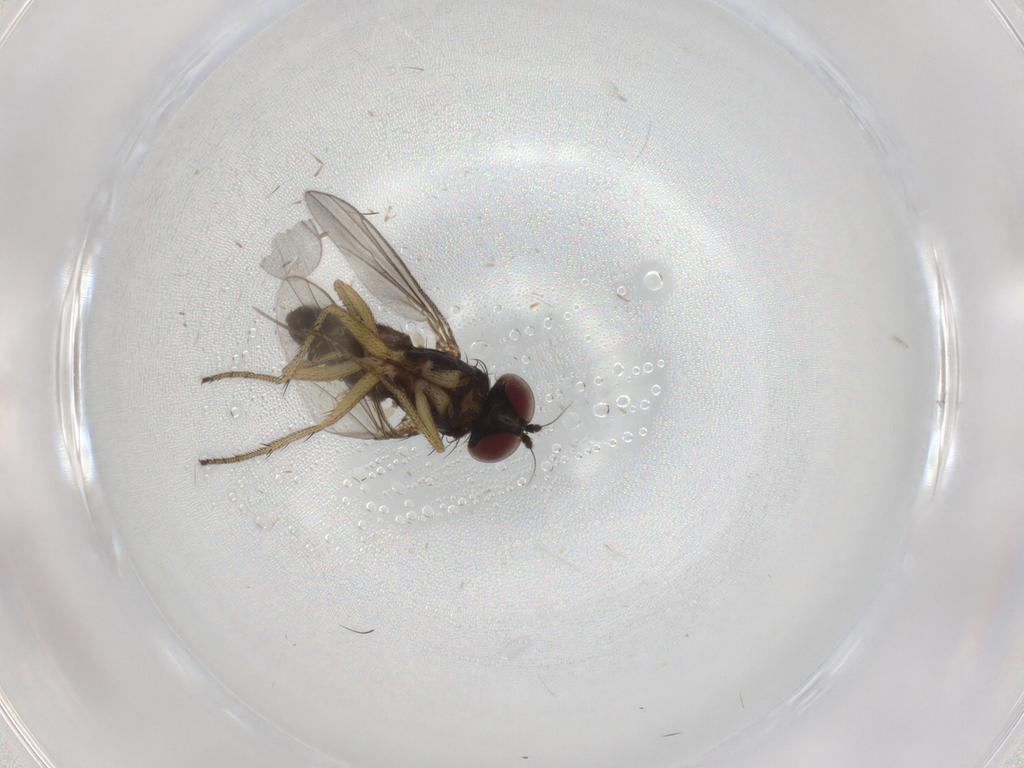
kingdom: Animalia
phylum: Arthropoda
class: Insecta
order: Diptera
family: Dolichopodidae
